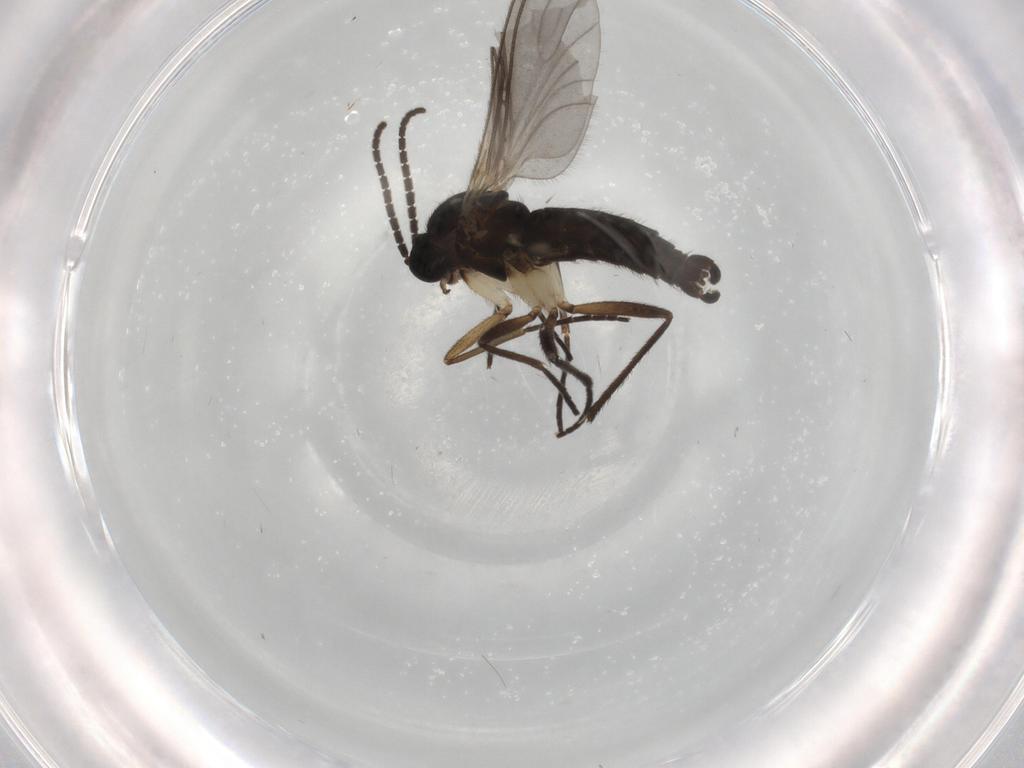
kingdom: Animalia
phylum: Arthropoda
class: Insecta
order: Diptera
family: Sciaridae
